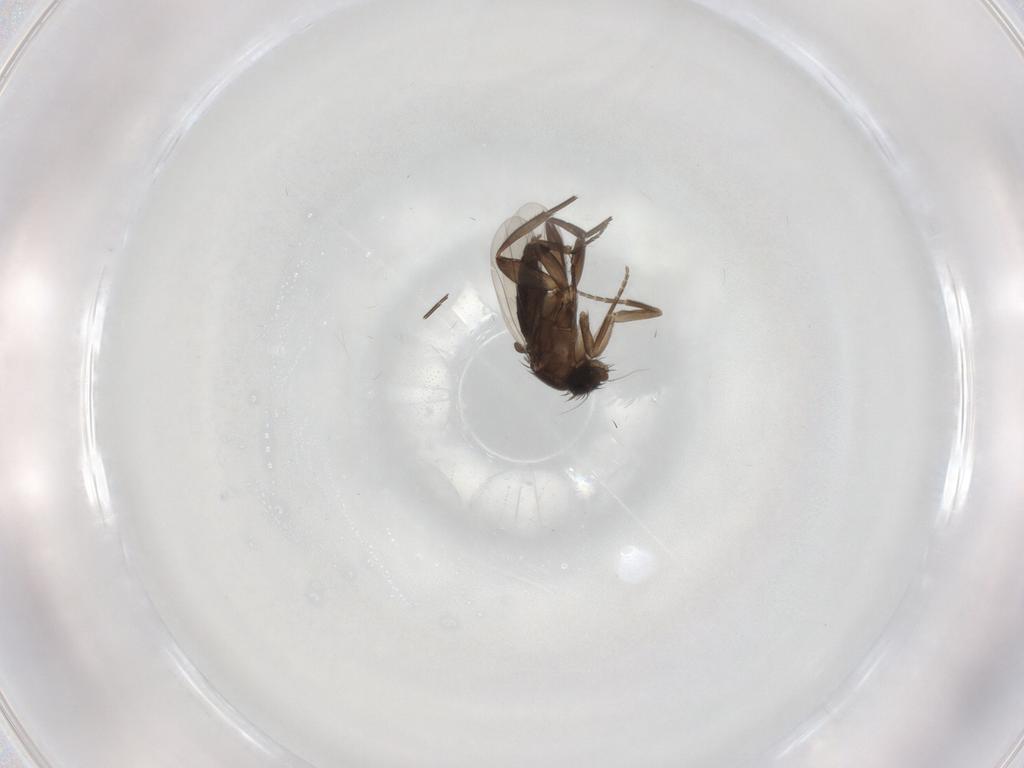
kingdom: Animalia
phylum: Arthropoda
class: Insecta
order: Diptera
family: Phoridae
